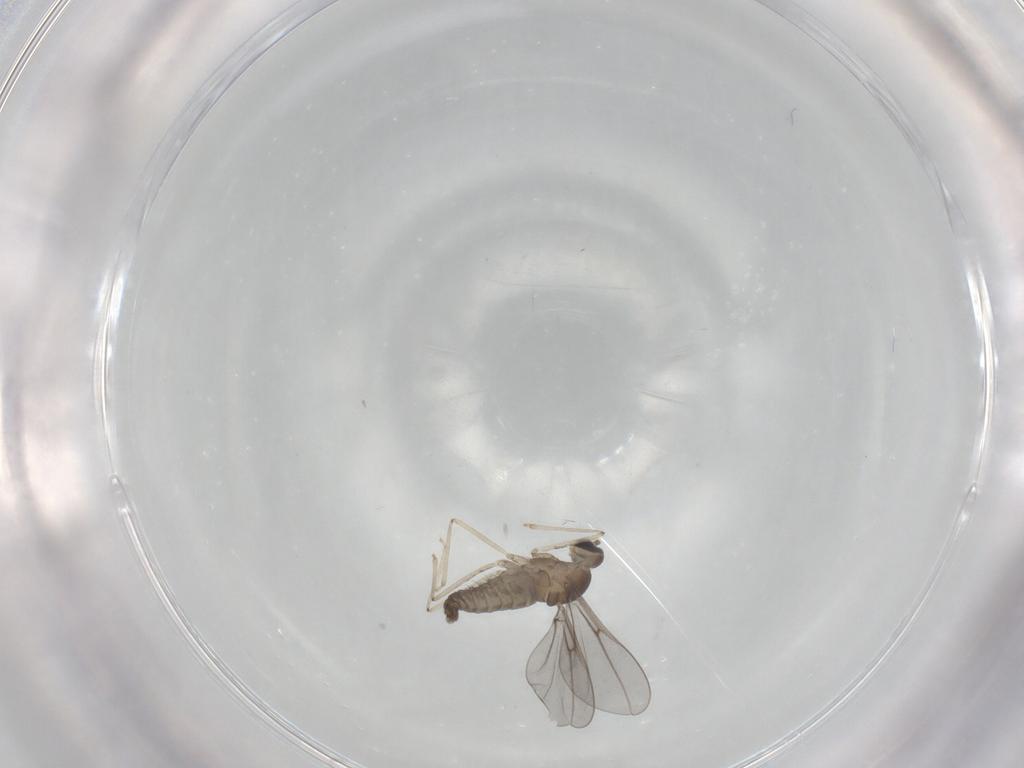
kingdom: Animalia
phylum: Arthropoda
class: Insecta
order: Diptera
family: Cecidomyiidae
